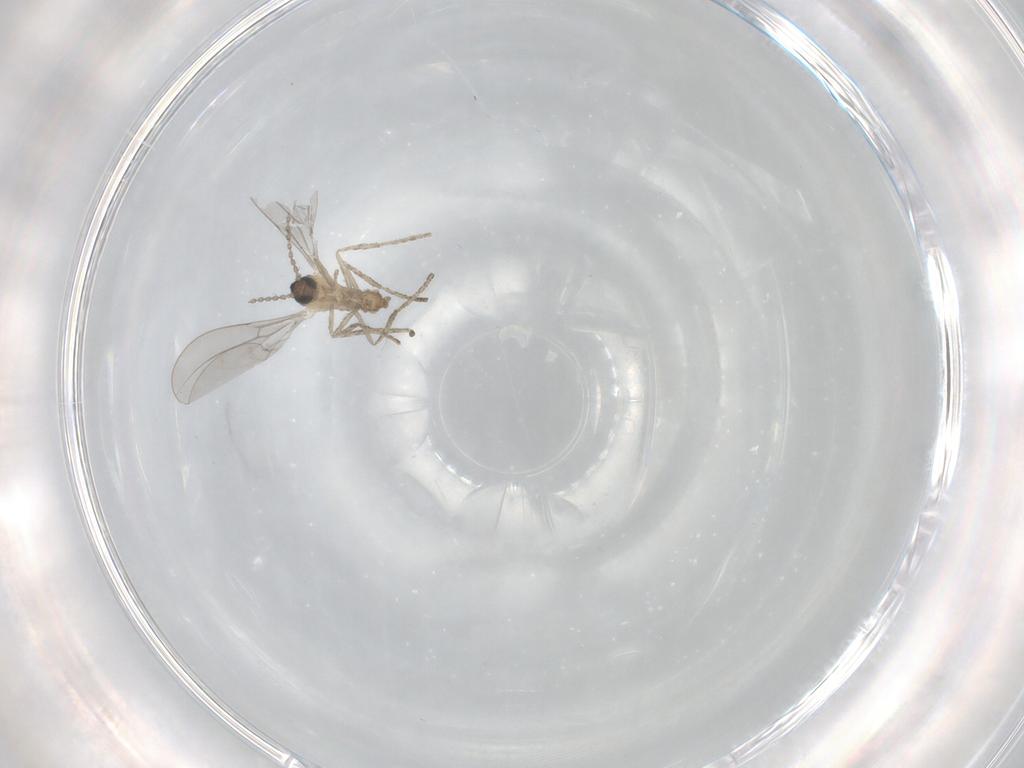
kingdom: Animalia
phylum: Arthropoda
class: Insecta
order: Diptera
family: Cecidomyiidae
